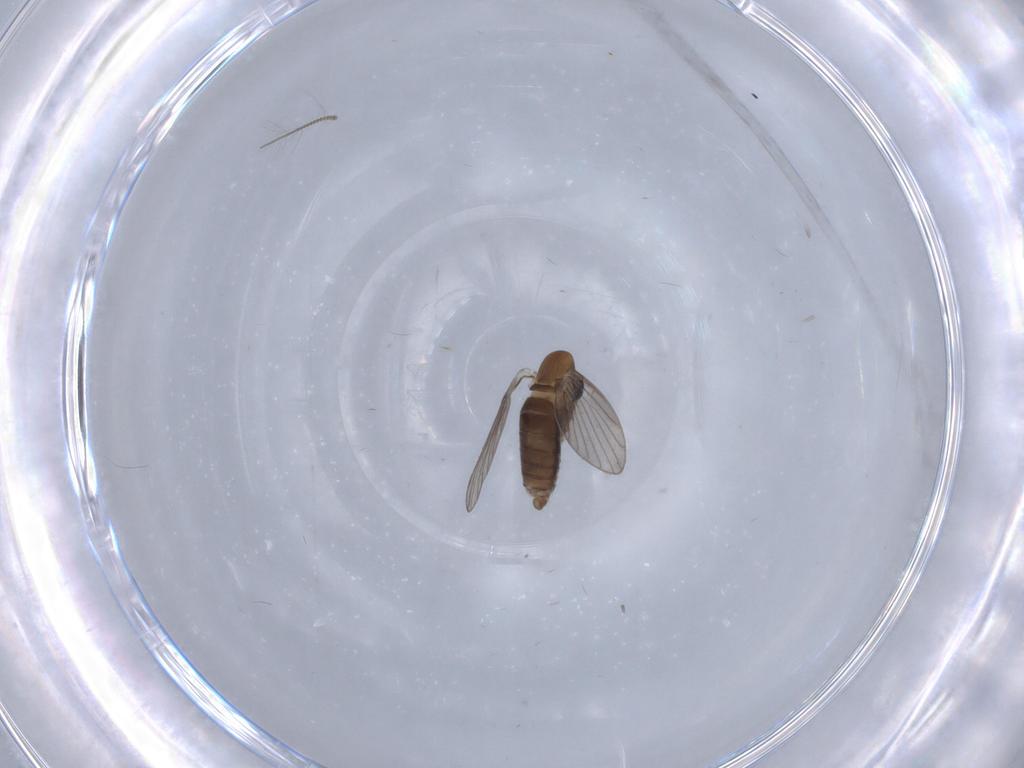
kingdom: Animalia
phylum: Arthropoda
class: Insecta
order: Diptera
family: Psychodidae
